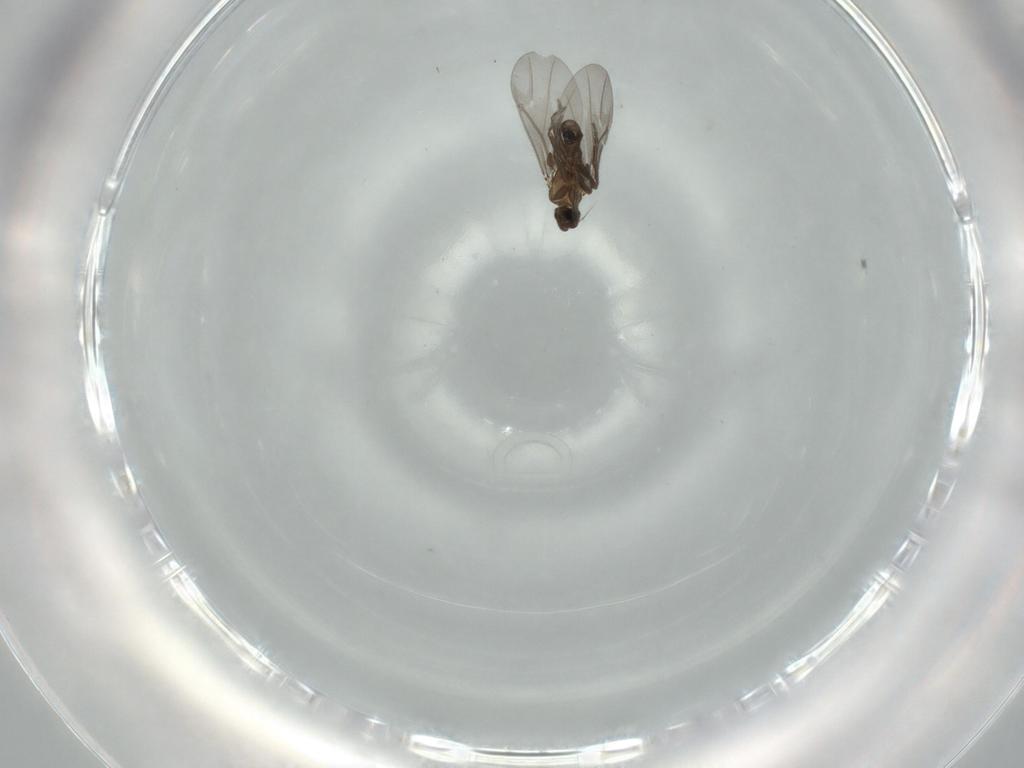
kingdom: Animalia
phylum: Arthropoda
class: Insecta
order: Diptera
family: Phoridae
